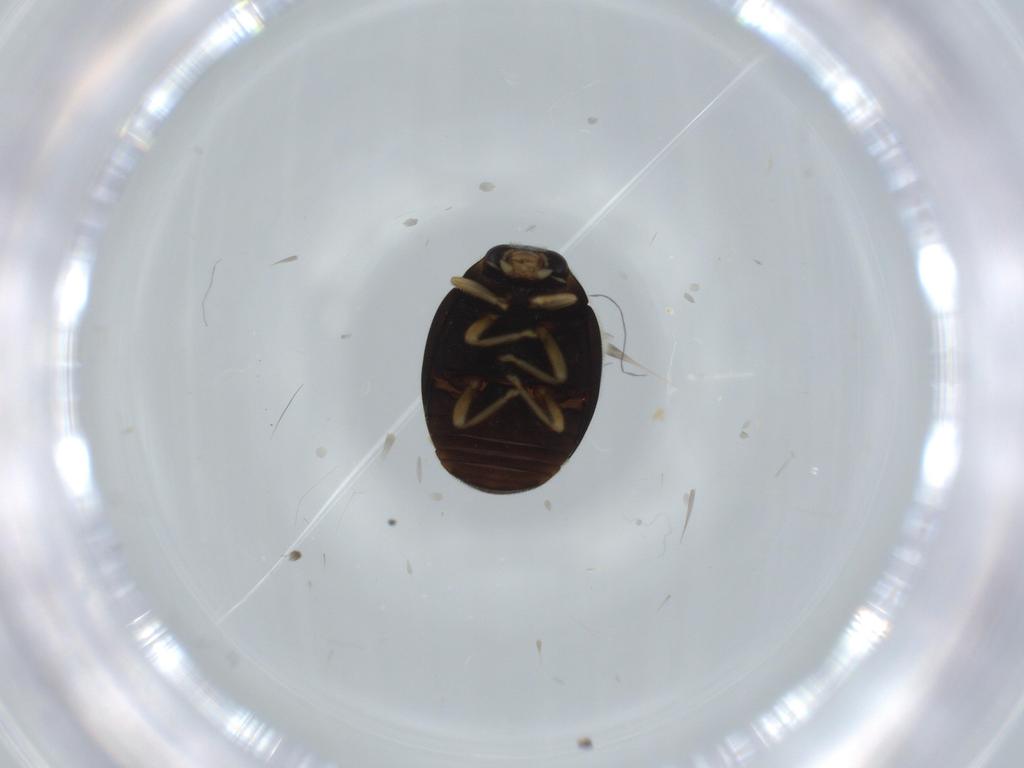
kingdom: Animalia
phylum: Arthropoda
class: Insecta
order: Coleoptera
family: Coccinellidae
